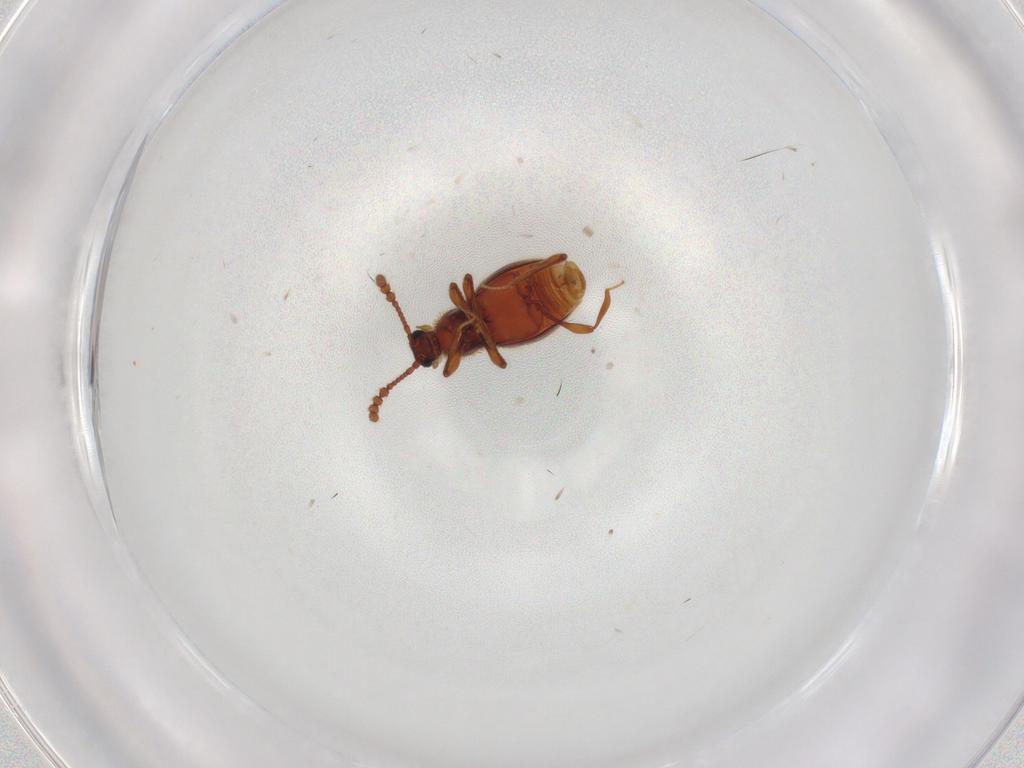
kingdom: Animalia
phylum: Arthropoda
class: Insecta
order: Coleoptera
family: Staphylinidae
